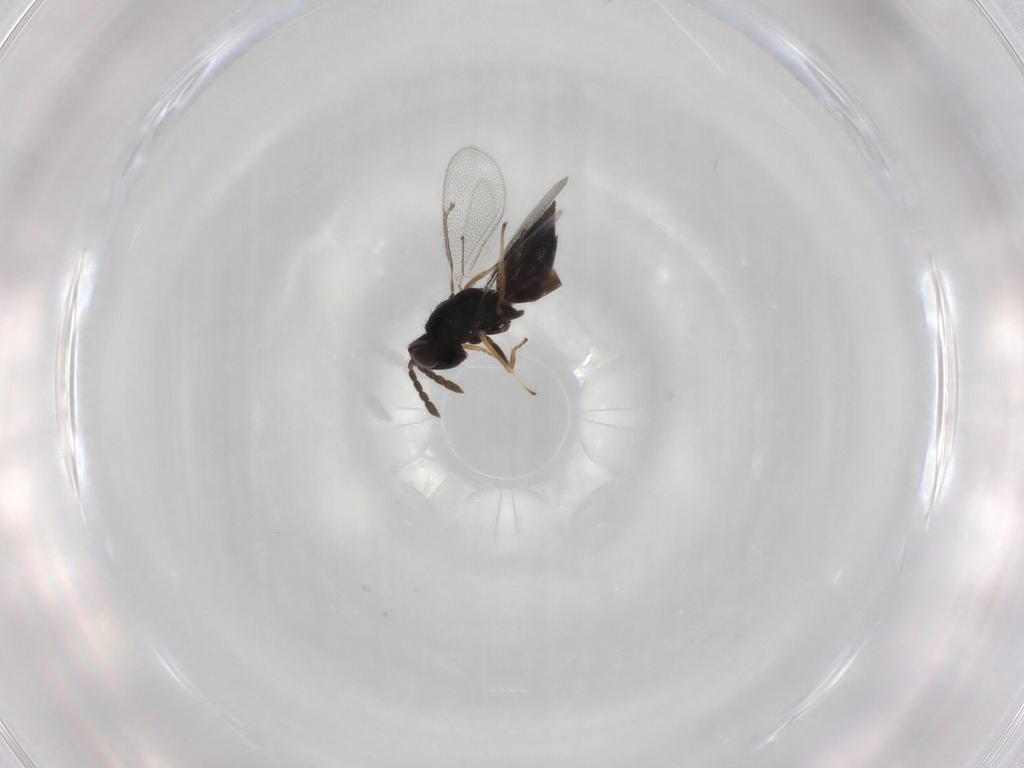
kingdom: Animalia
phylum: Arthropoda
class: Insecta
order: Hymenoptera
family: Eulophidae
